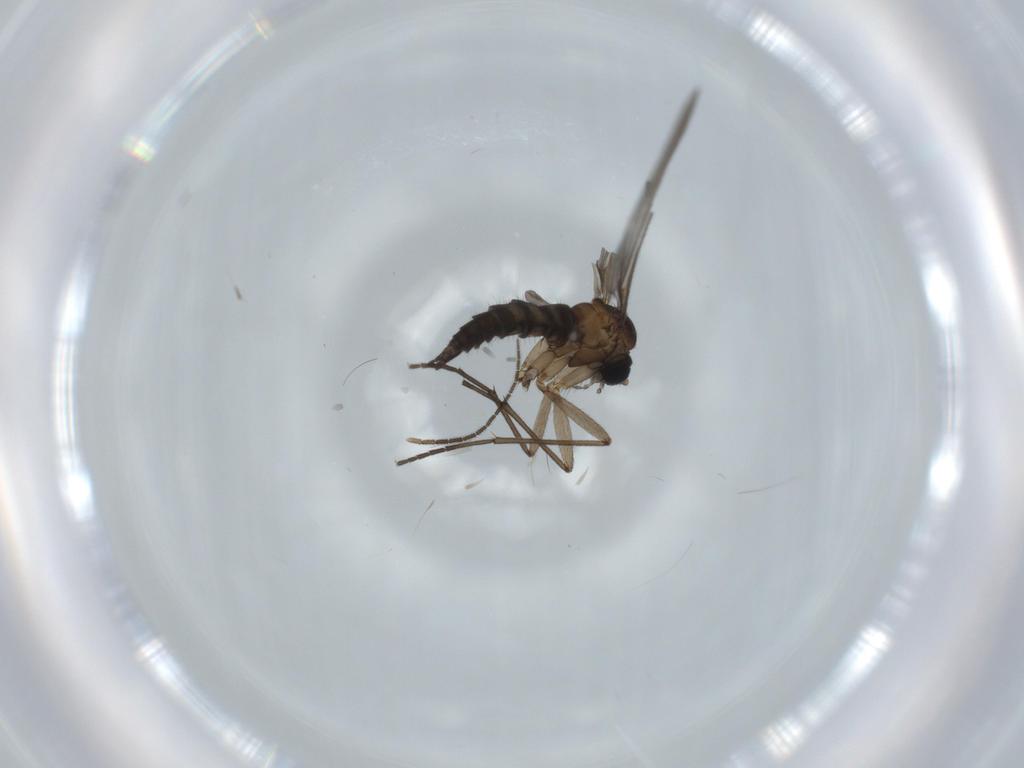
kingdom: Animalia
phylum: Arthropoda
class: Insecta
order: Diptera
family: Sciaridae
